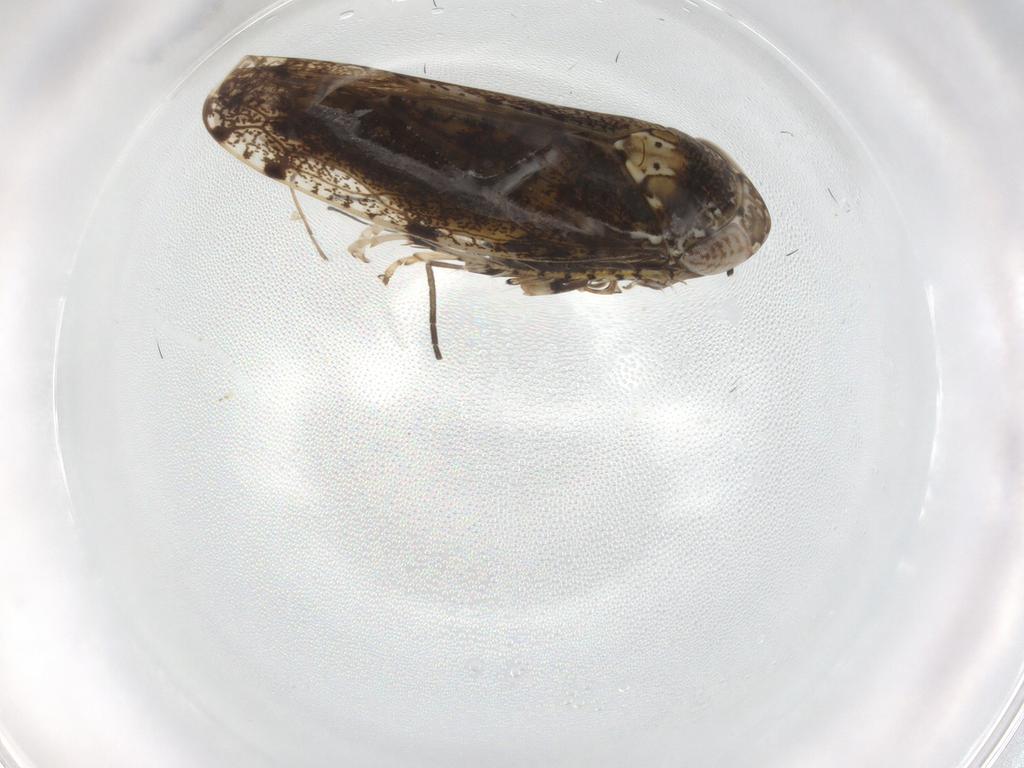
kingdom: Animalia
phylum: Arthropoda
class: Insecta
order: Hemiptera
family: Cicadellidae
